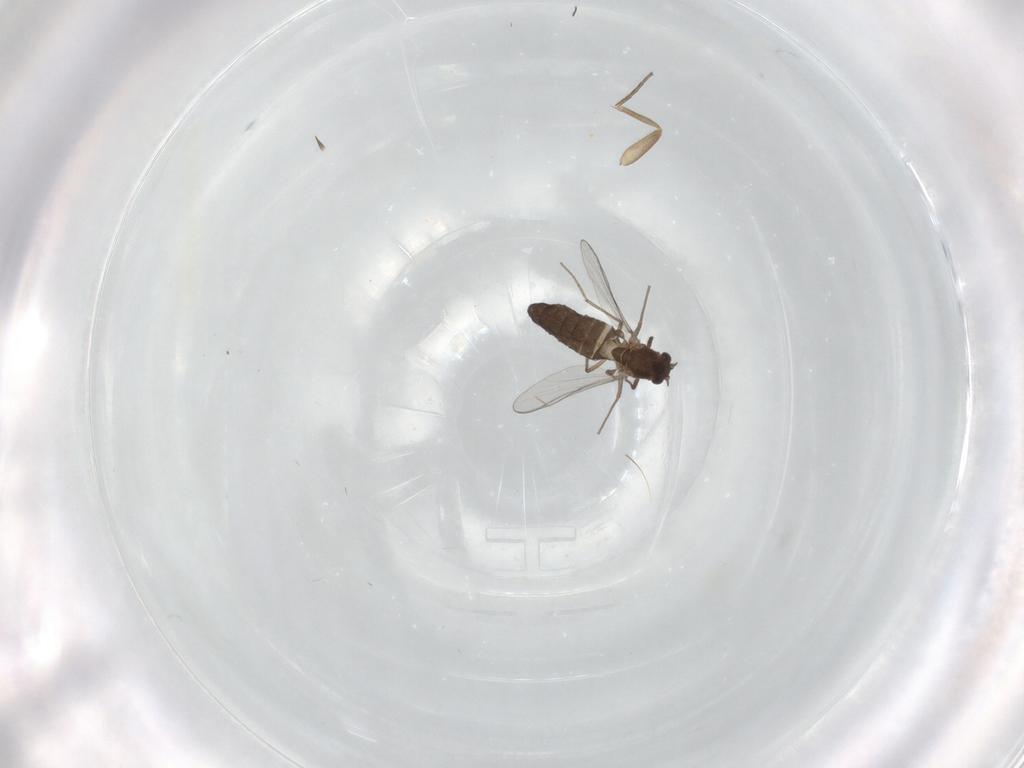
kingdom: Animalia
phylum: Arthropoda
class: Insecta
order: Diptera
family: Chironomidae
